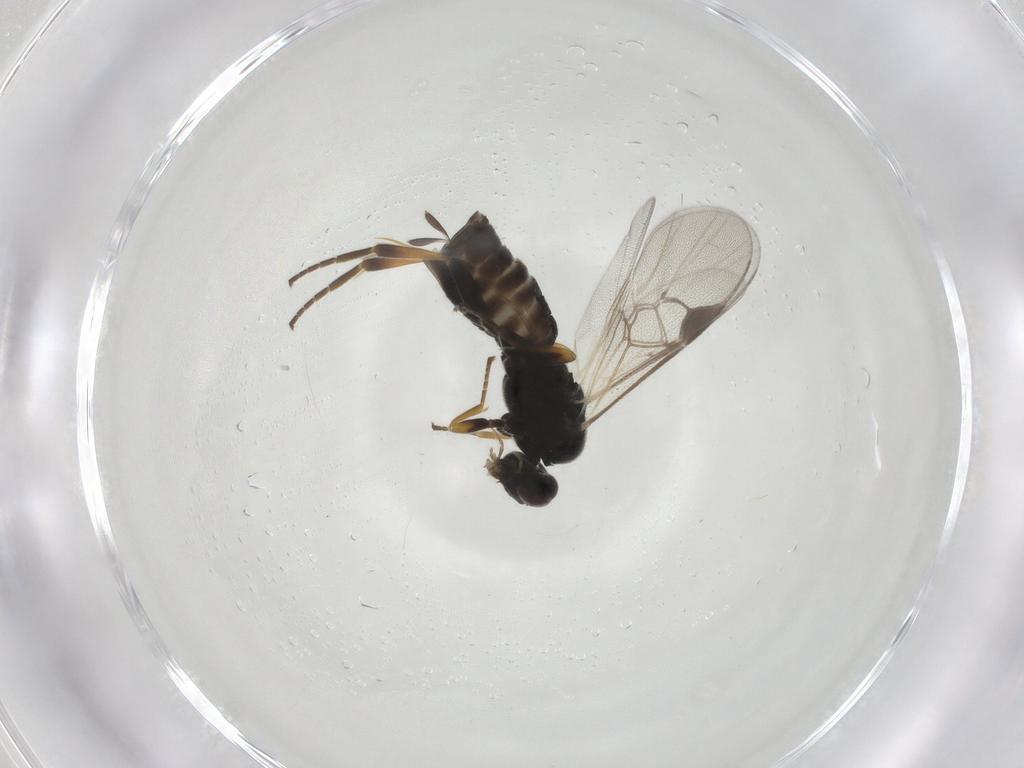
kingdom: Animalia
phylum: Arthropoda
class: Insecta
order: Hymenoptera
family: Braconidae
